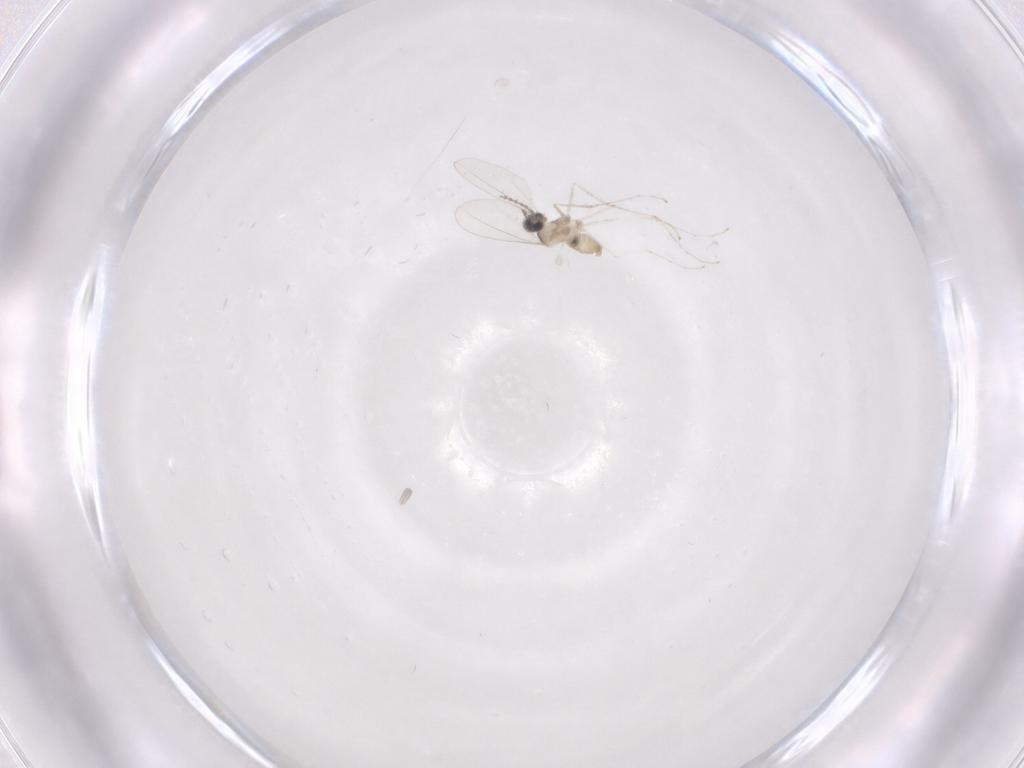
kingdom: Animalia
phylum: Arthropoda
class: Insecta
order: Diptera
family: Cecidomyiidae
